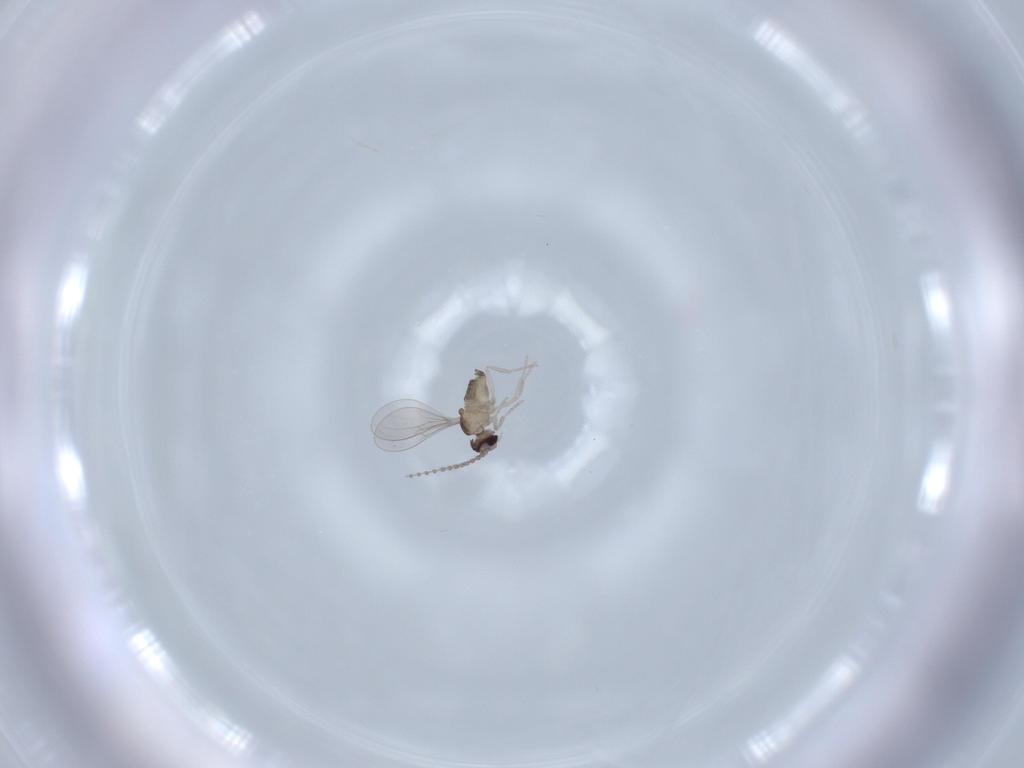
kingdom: Animalia
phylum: Arthropoda
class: Insecta
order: Diptera
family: Cecidomyiidae
